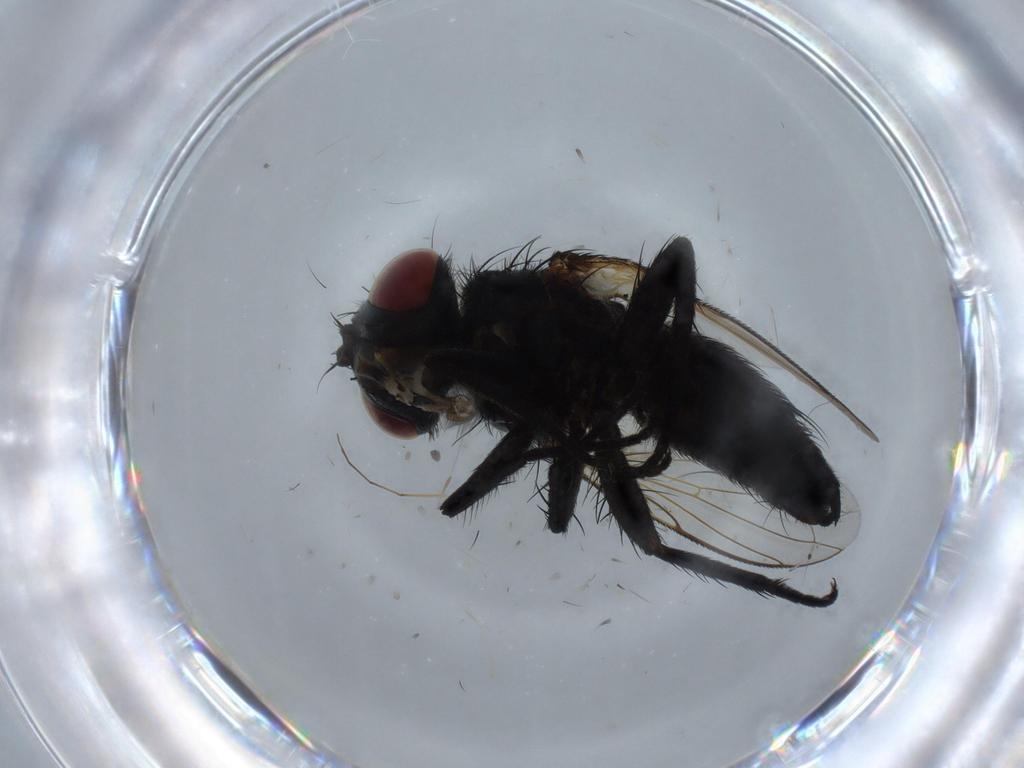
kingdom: Animalia
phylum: Arthropoda
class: Insecta
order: Diptera
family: Tachinidae
